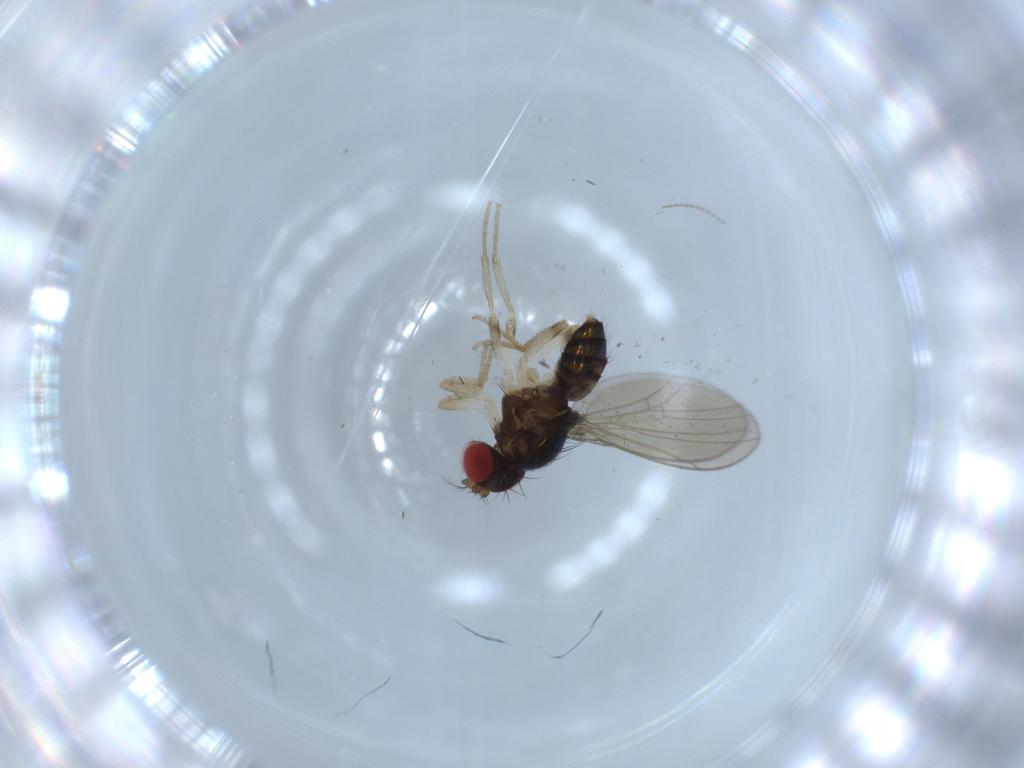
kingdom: Animalia
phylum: Arthropoda
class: Insecta
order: Diptera
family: Drosophilidae
